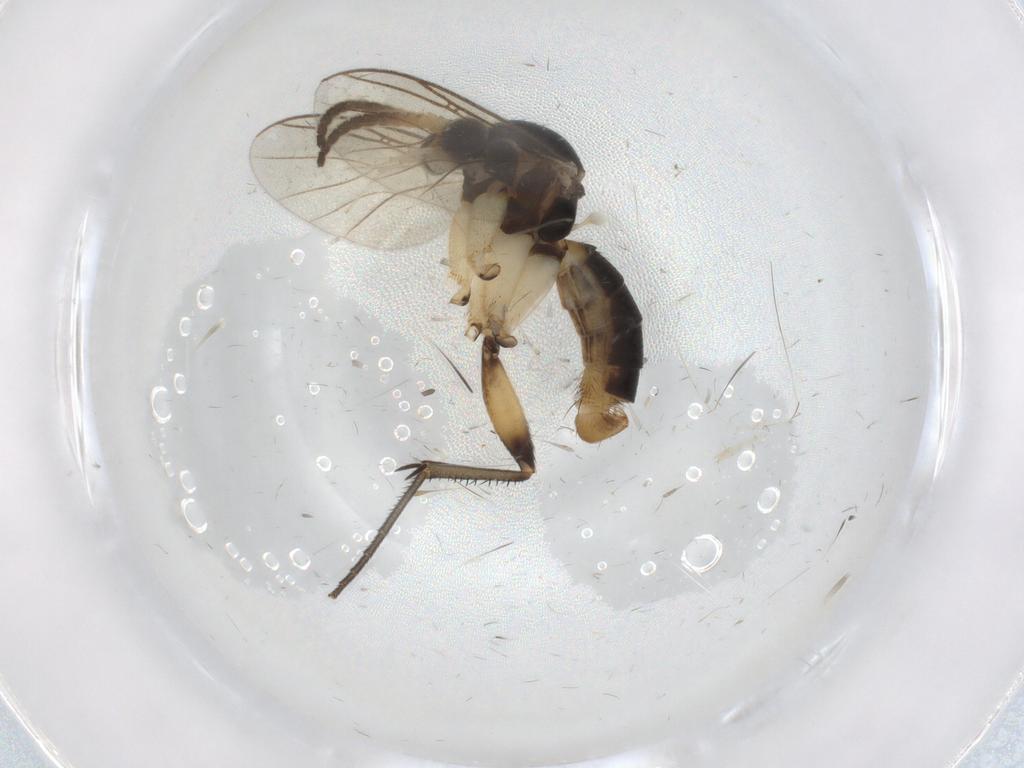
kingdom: Animalia
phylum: Arthropoda
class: Insecta
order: Diptera
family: Phoridae
